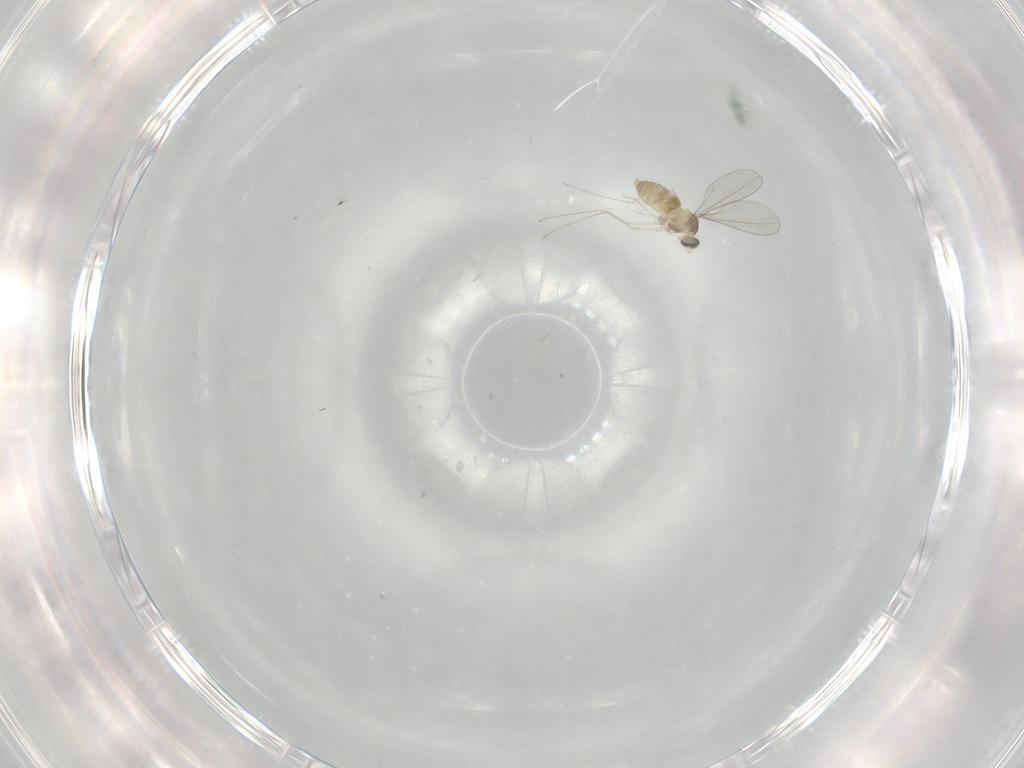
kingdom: Animalia
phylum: Arthropoda
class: Insecta
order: Diptera
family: Cecidomyiidae
